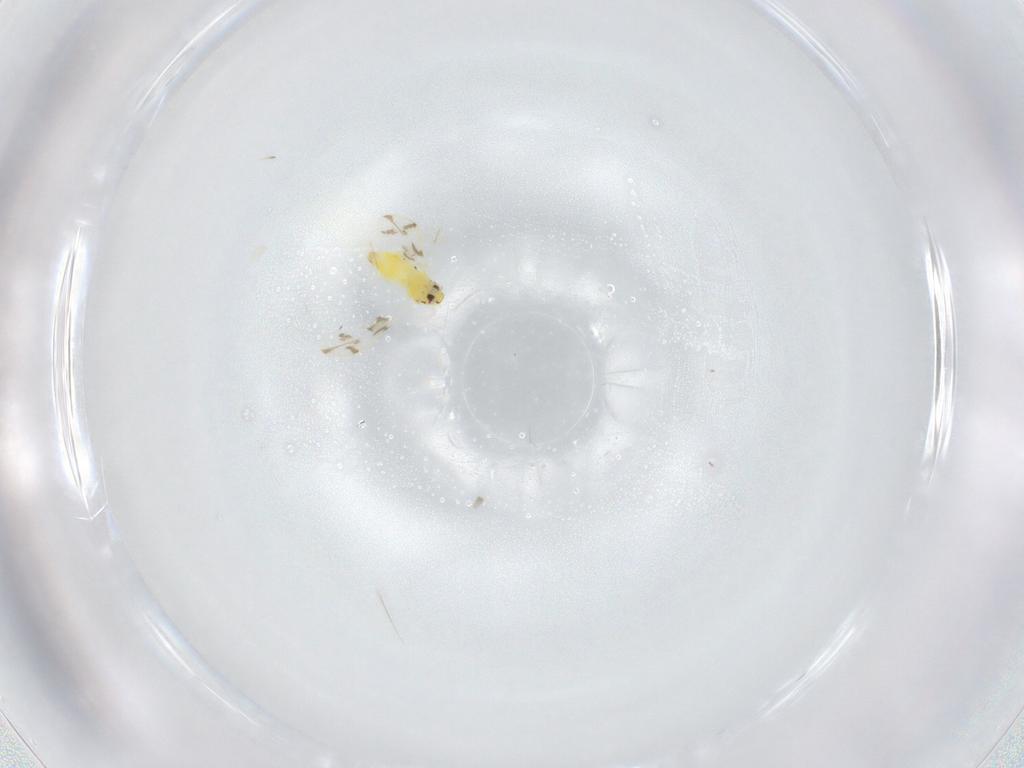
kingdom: Animalia
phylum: Arthropoda
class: Insecta
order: Hemiptera
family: Aleyrodidae
